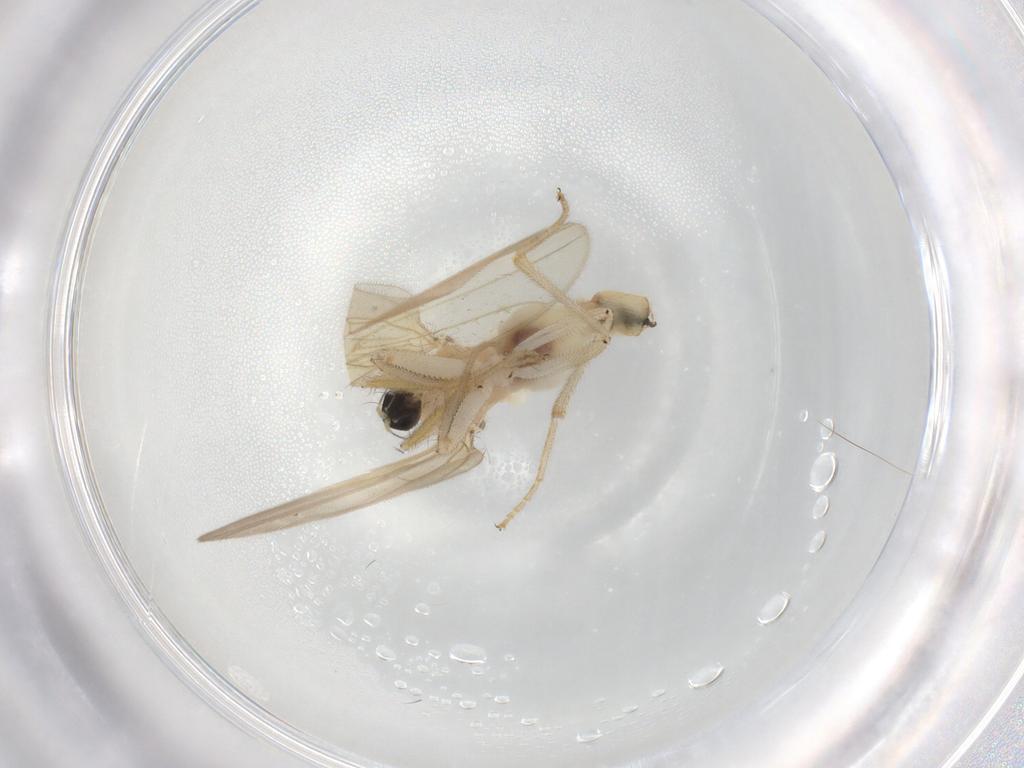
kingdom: Animalia
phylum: Arthropoda
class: Insecta
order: Diptera
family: Hybotidae
